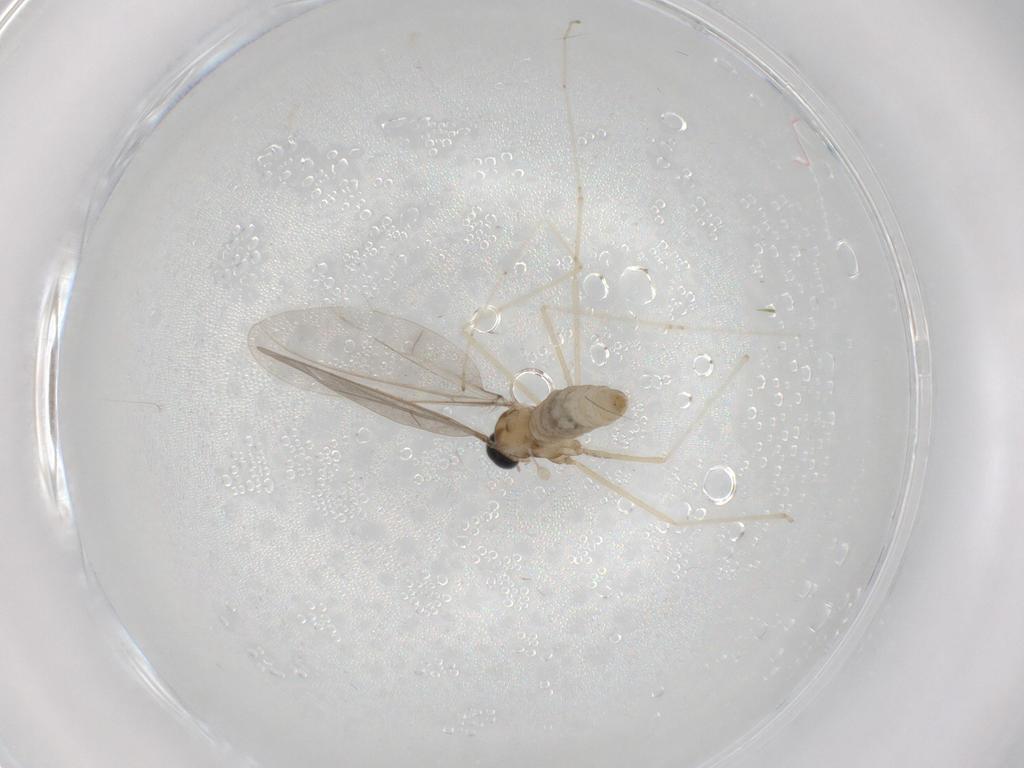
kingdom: Animalia
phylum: Arthropoda
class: Insecta
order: Diptera
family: Cecidomyiidae
